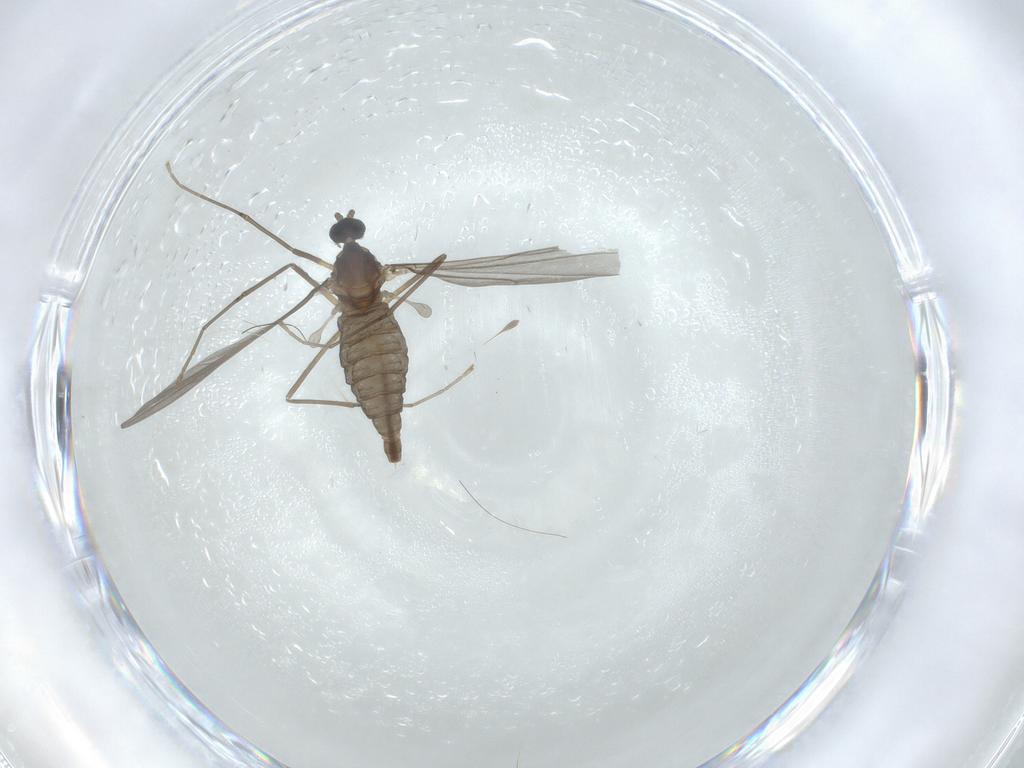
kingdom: Animalia
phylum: Arthropoda
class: Insecta
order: Diptera
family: Cecidomyiidae
